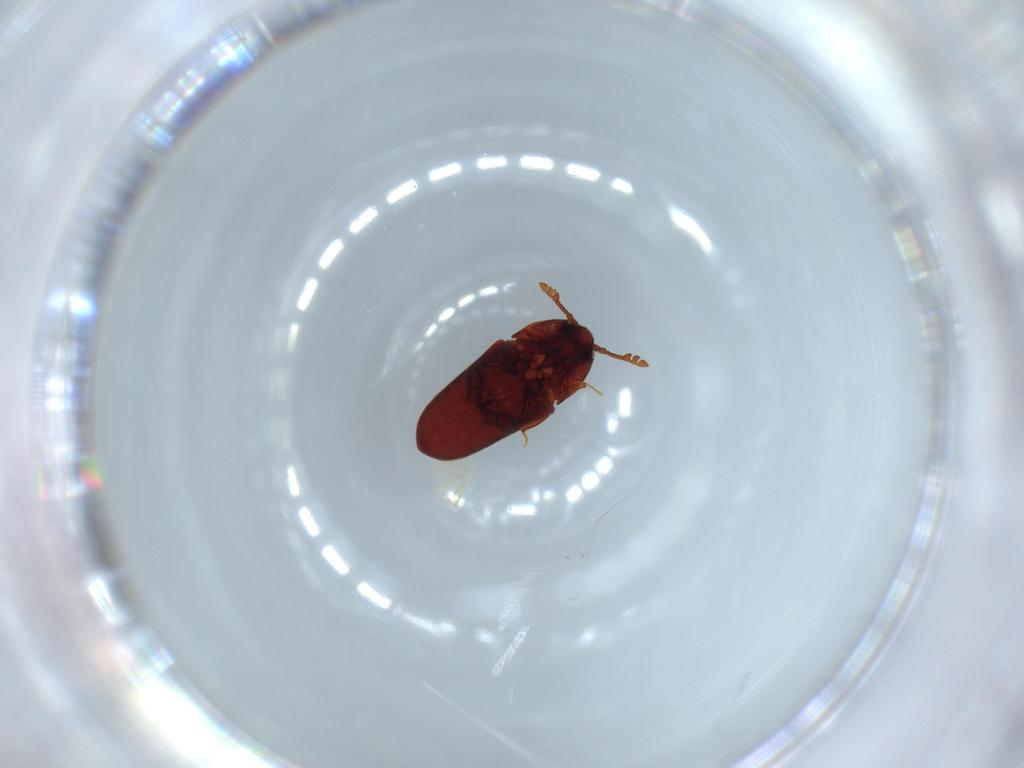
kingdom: Animalia
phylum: Arthropoda
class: Insecta
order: Coleoptera
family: Throscidae
